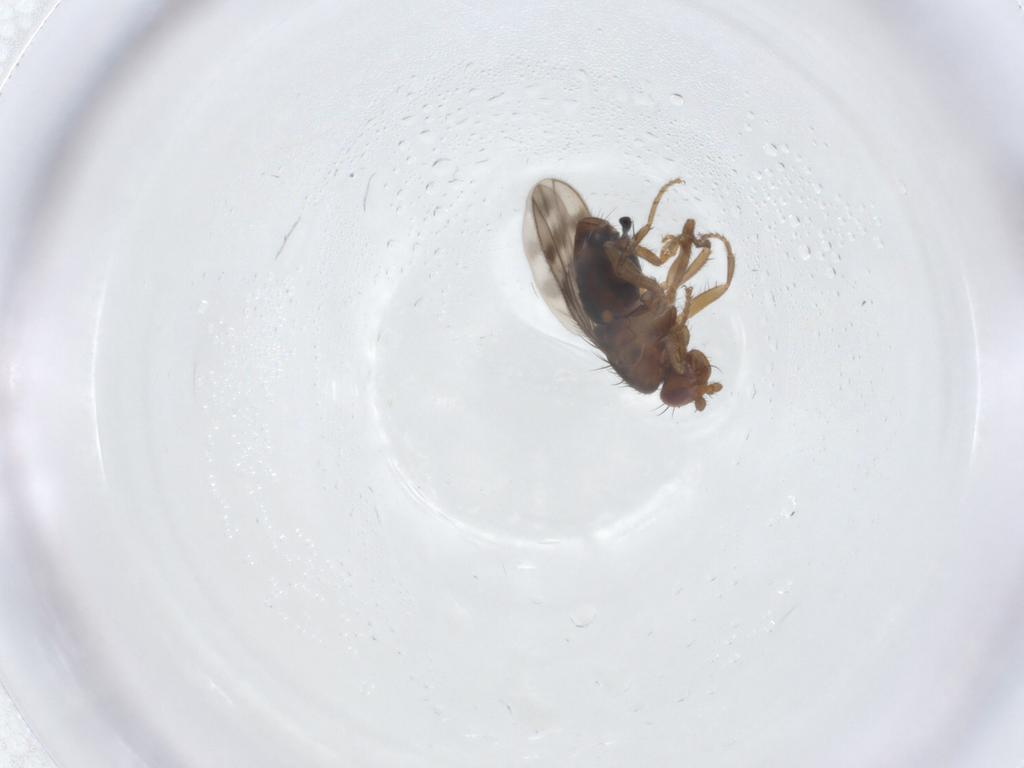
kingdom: Animalia
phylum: Arthropoda
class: Insecta
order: Diptera
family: Sphaeroceridae
